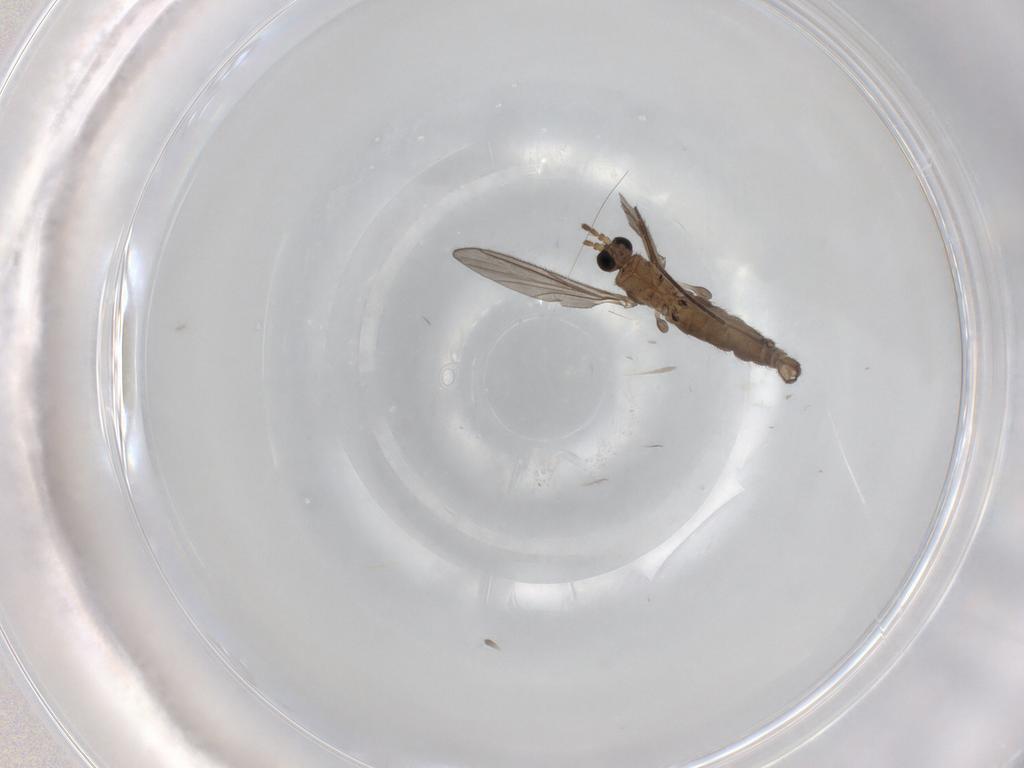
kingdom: Animalia
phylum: Arthropoda
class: Insecta
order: Diptera
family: Sciaridae
